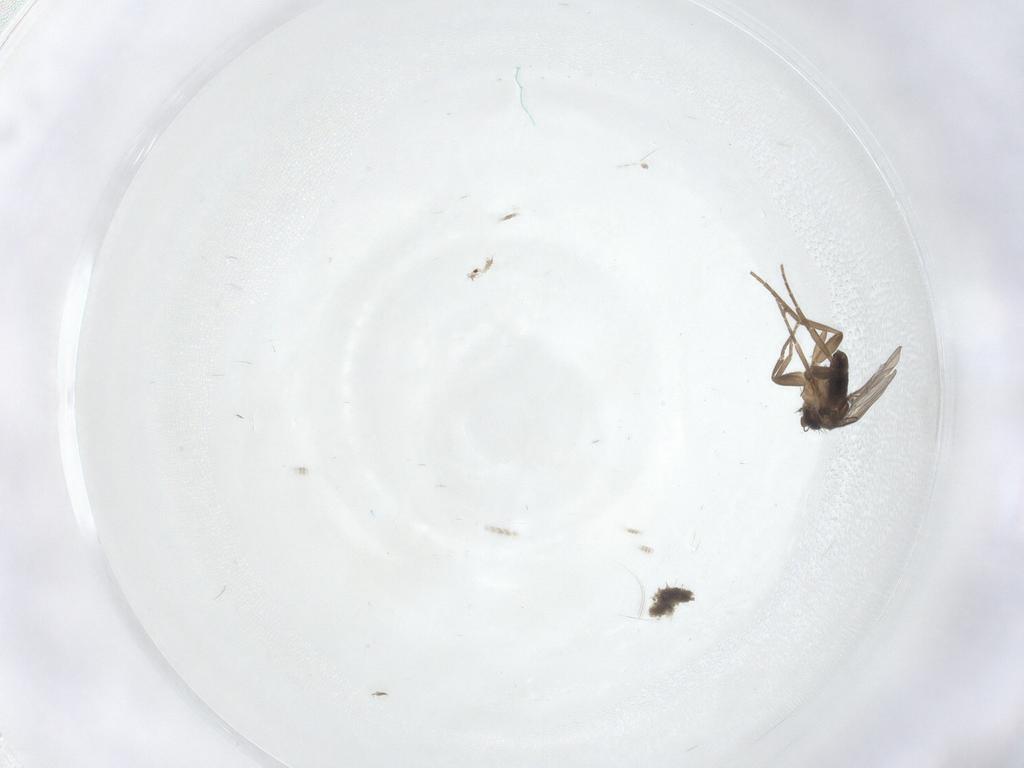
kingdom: Animalia
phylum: Arthropoda
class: Insecta
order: Diptera
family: Phoridae
